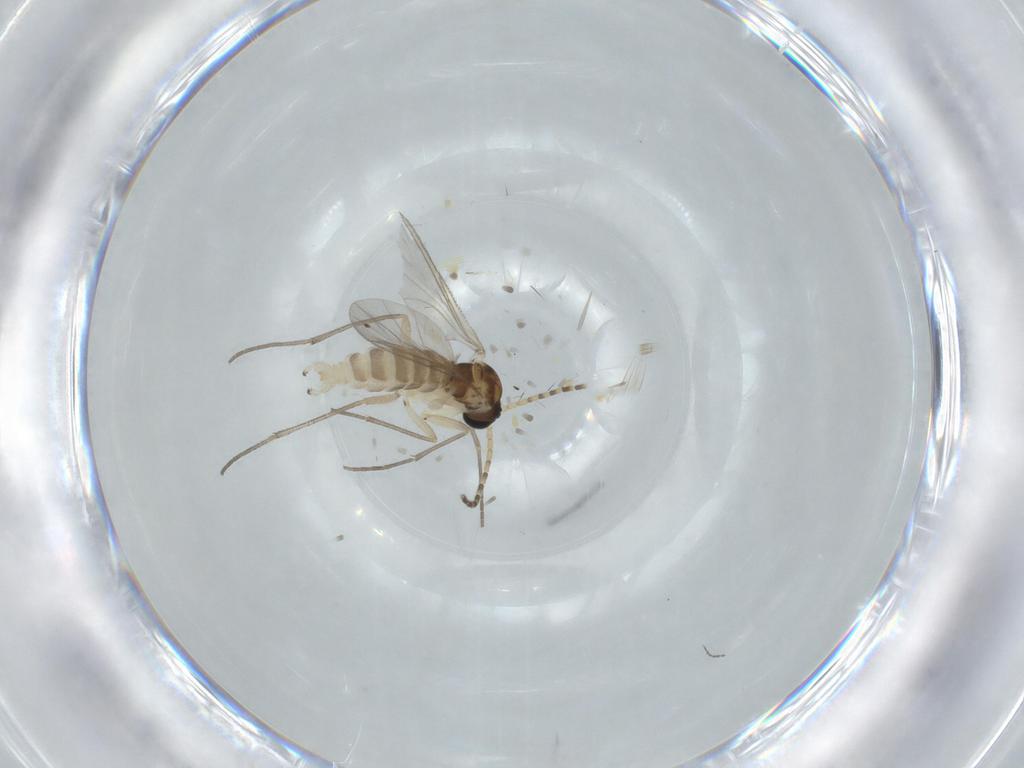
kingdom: Animalia
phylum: Arthropoda
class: Insecta
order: Diptera
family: Sciaridae
